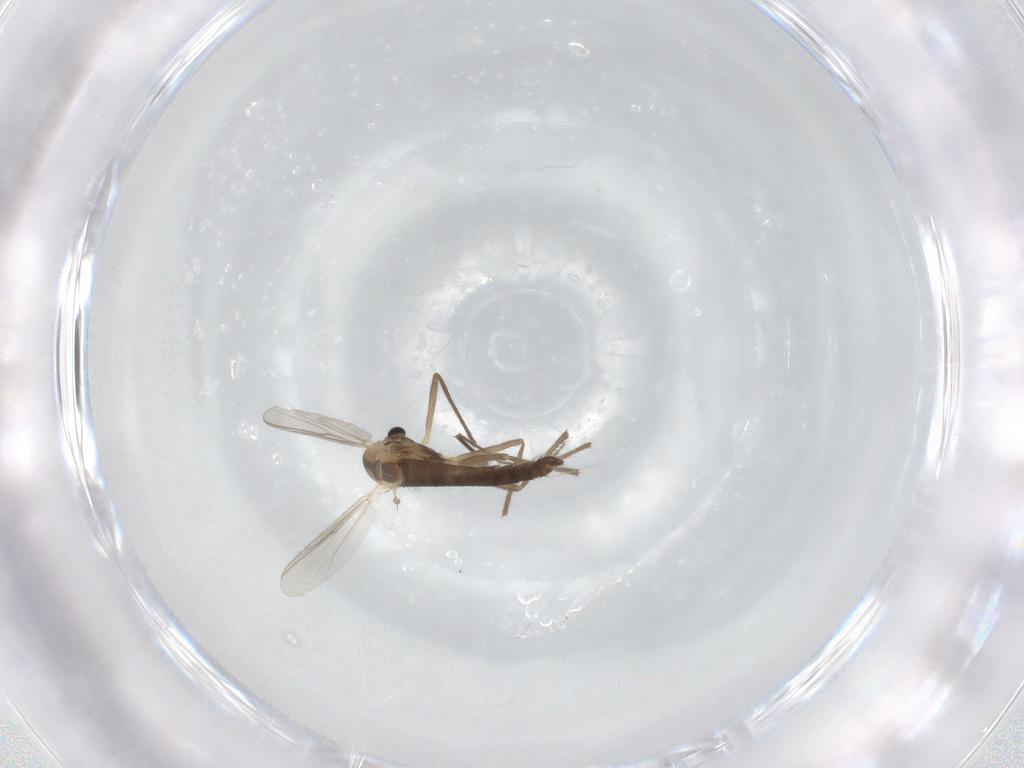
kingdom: Animalia
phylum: Arthropoda
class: Insecta
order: Diptera
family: Chironomidae
